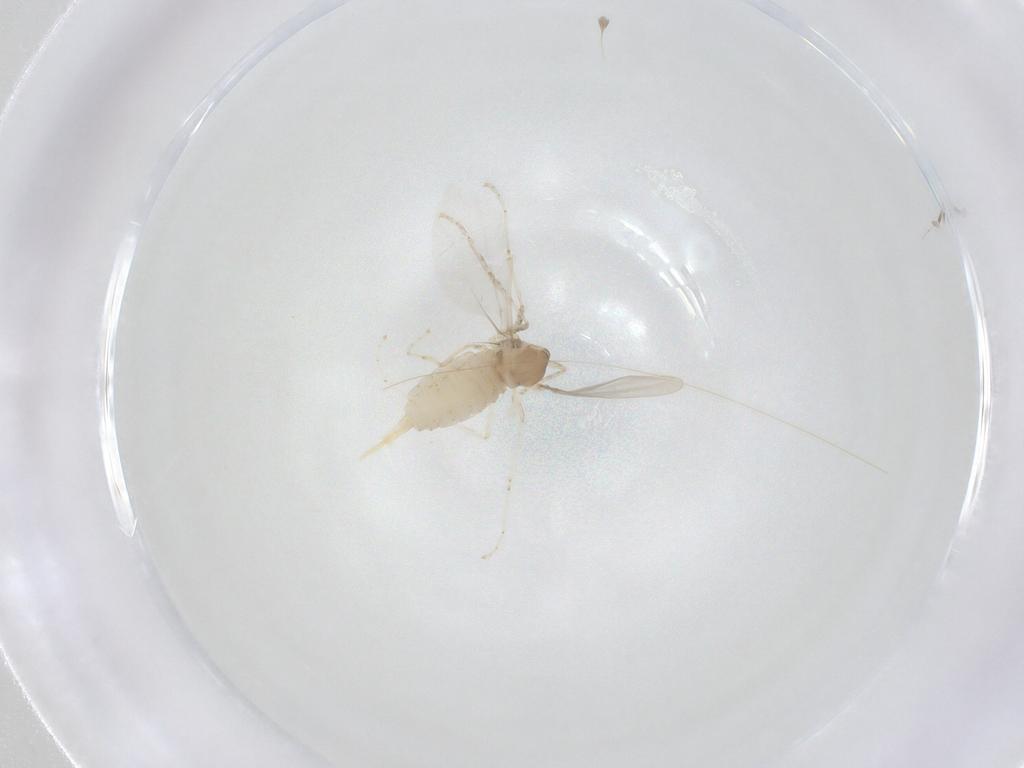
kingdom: Animalia
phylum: Arthropoda
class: Insecta
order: Diptera
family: Cecidomyiidae
